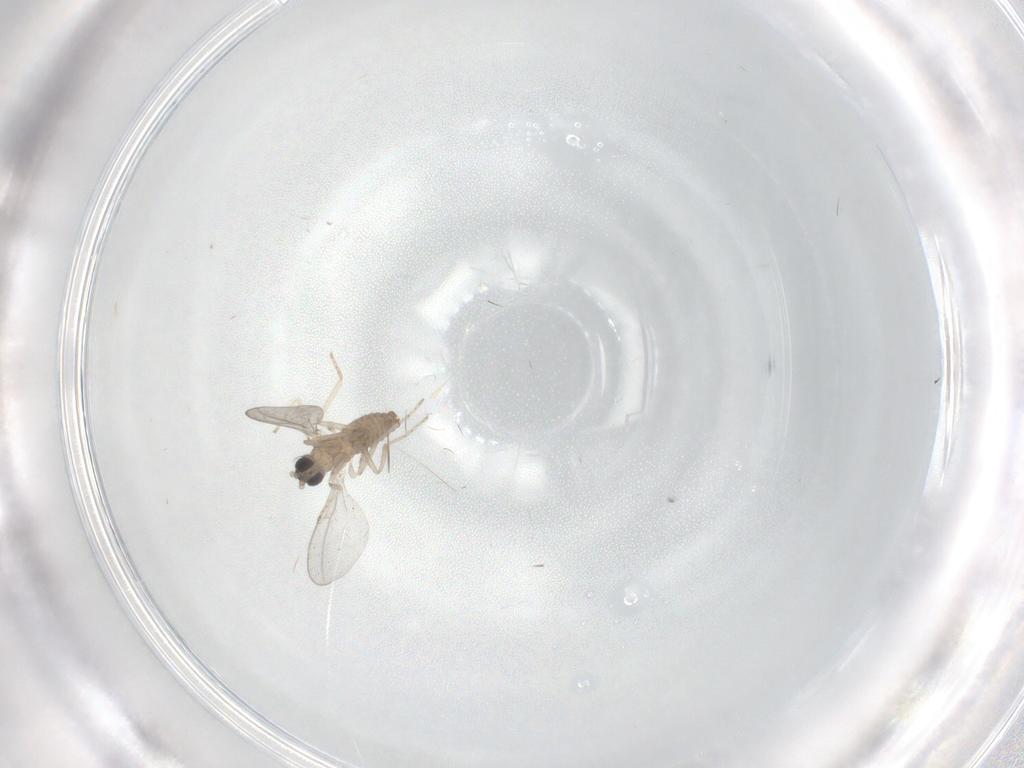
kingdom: Animalia
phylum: Arthropoda
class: Insecta
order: Diptera
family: Cecidomyiidae
